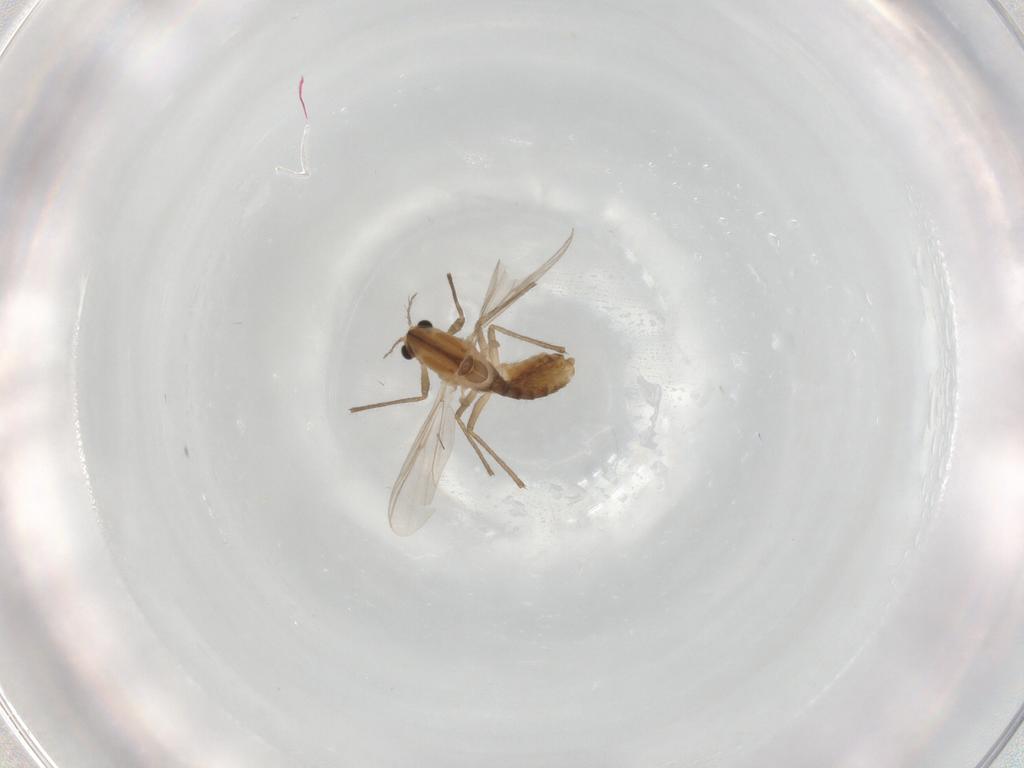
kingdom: Animalia
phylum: Arthropoda
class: Insecta
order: Diptera
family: Chironomidae
